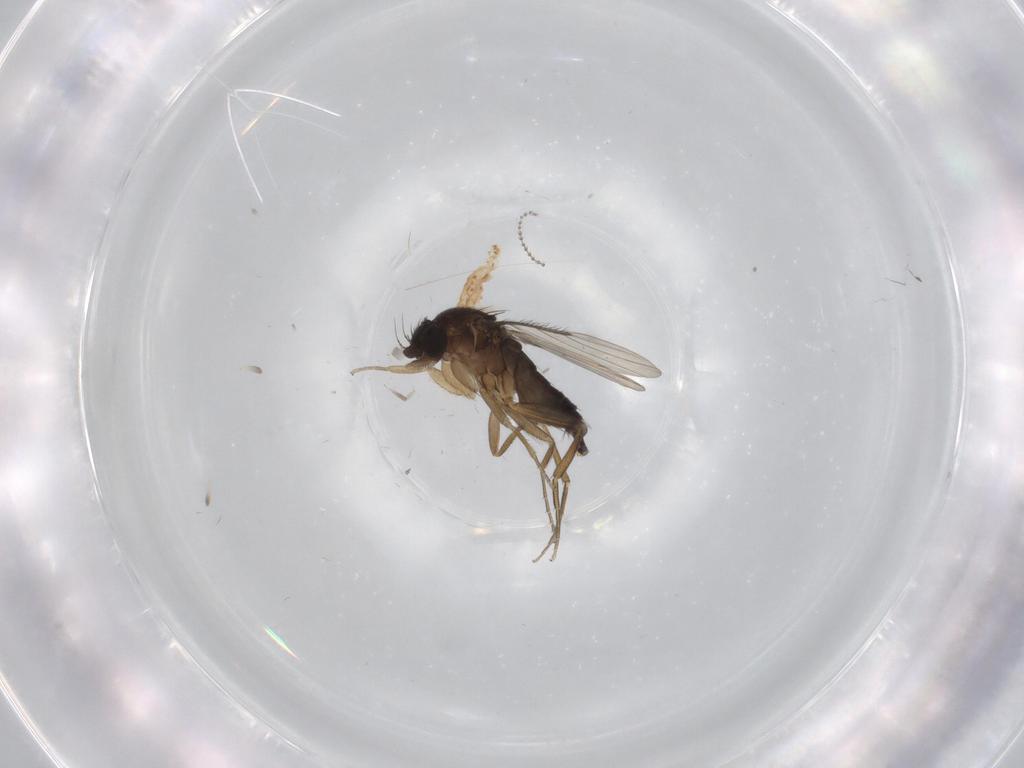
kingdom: Animalia
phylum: Arthropoda
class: Insecta
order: Diptera
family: Phoridae
